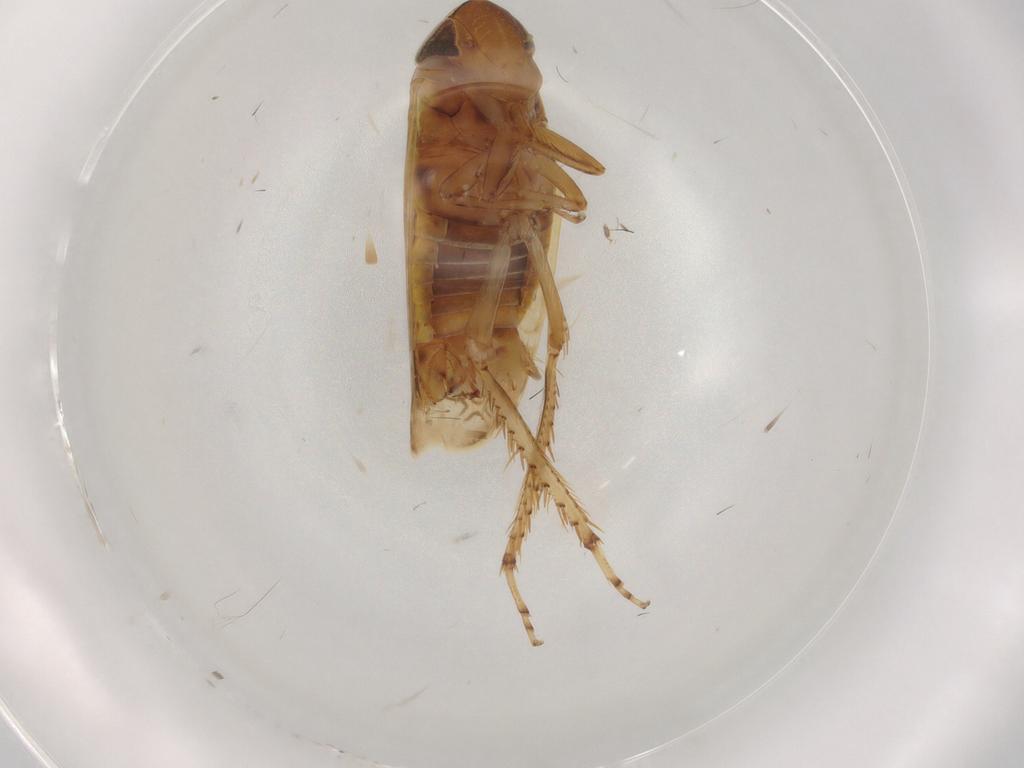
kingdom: Animalia
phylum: Arthropoda
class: Insecta
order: Hemiptera
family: Cicadellidae
